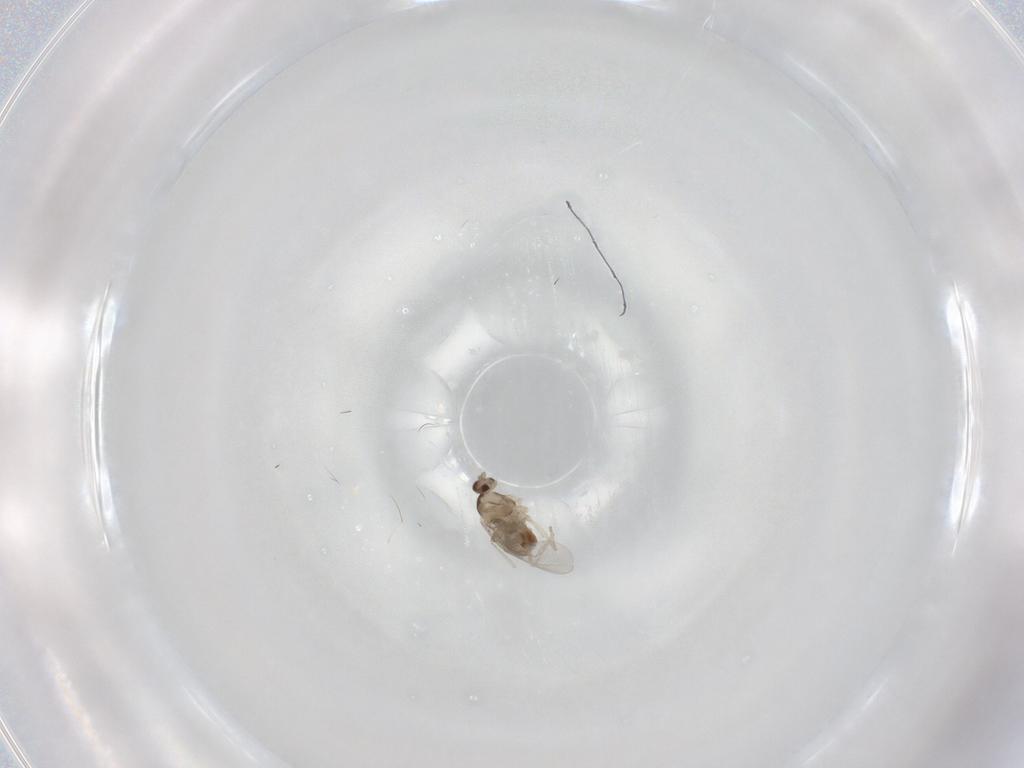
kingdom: Animalia
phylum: Arthropoda
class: Insecta
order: Diptera
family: Cecidomyiidae
